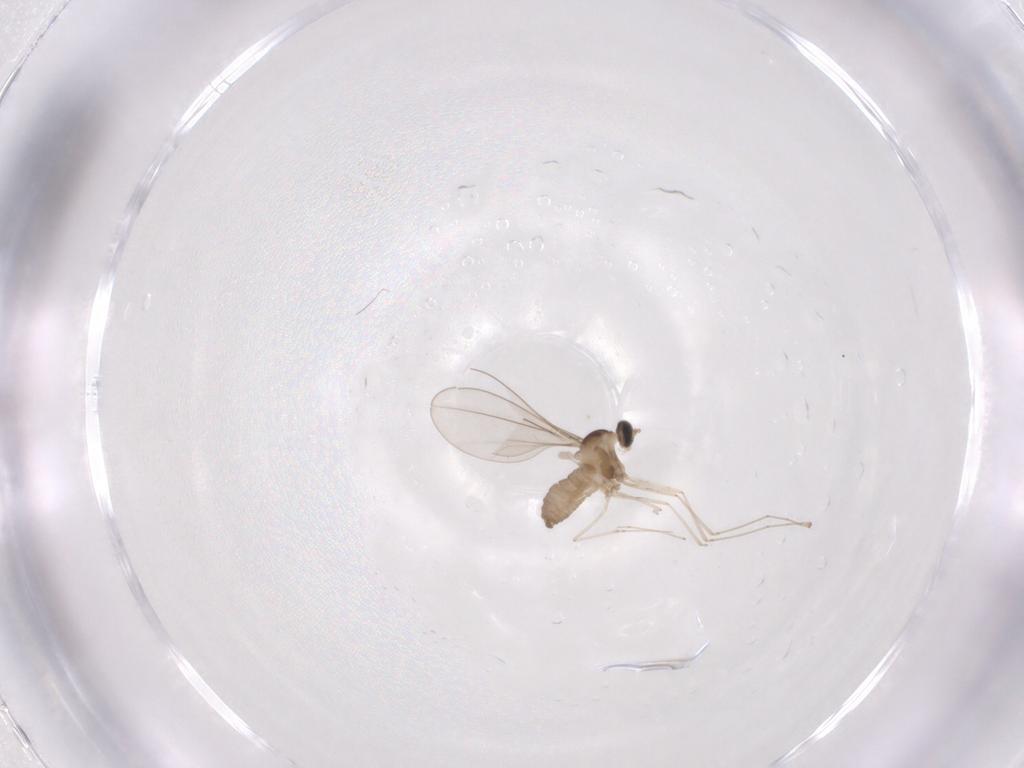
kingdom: Animalia
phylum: Arthropoda
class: Insecta
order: Diptera
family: Cecidomyiidae
